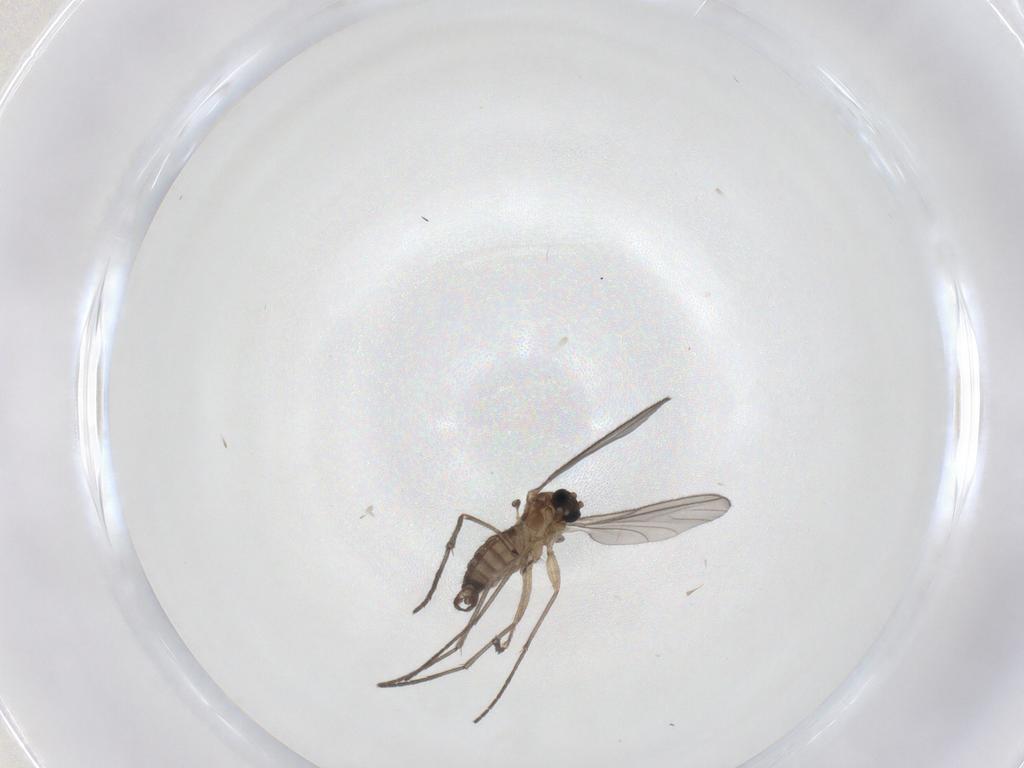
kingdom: Animalia
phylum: Arthropoda
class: Insecta
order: Diptera
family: Sciaridae
